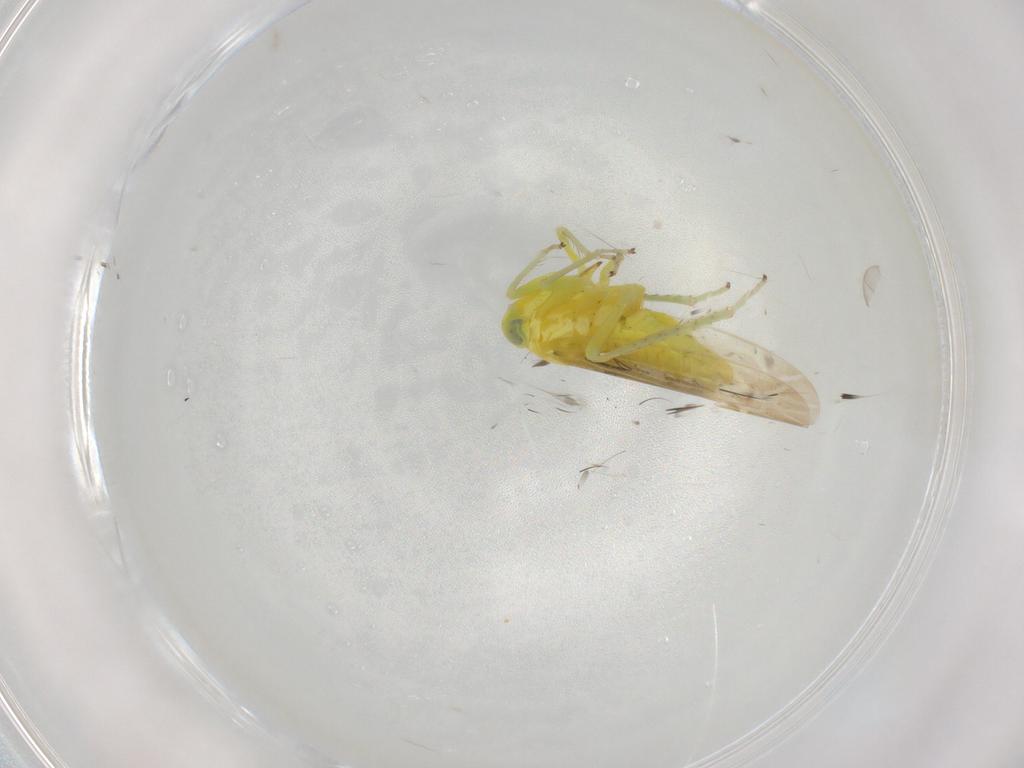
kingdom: Animalia
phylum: Arthropoda
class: Insecta
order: Hemiptera
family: Cicadellidae
